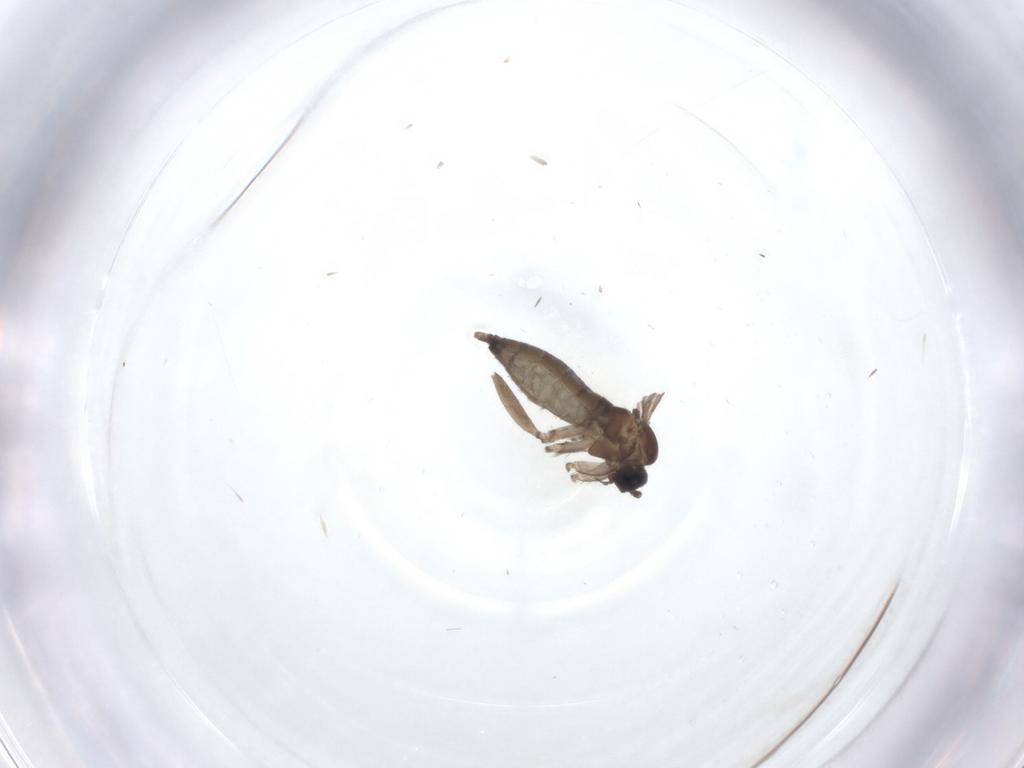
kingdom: Animalia
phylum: Arthropoda
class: Insecta
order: Diptera
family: Sciaridae
